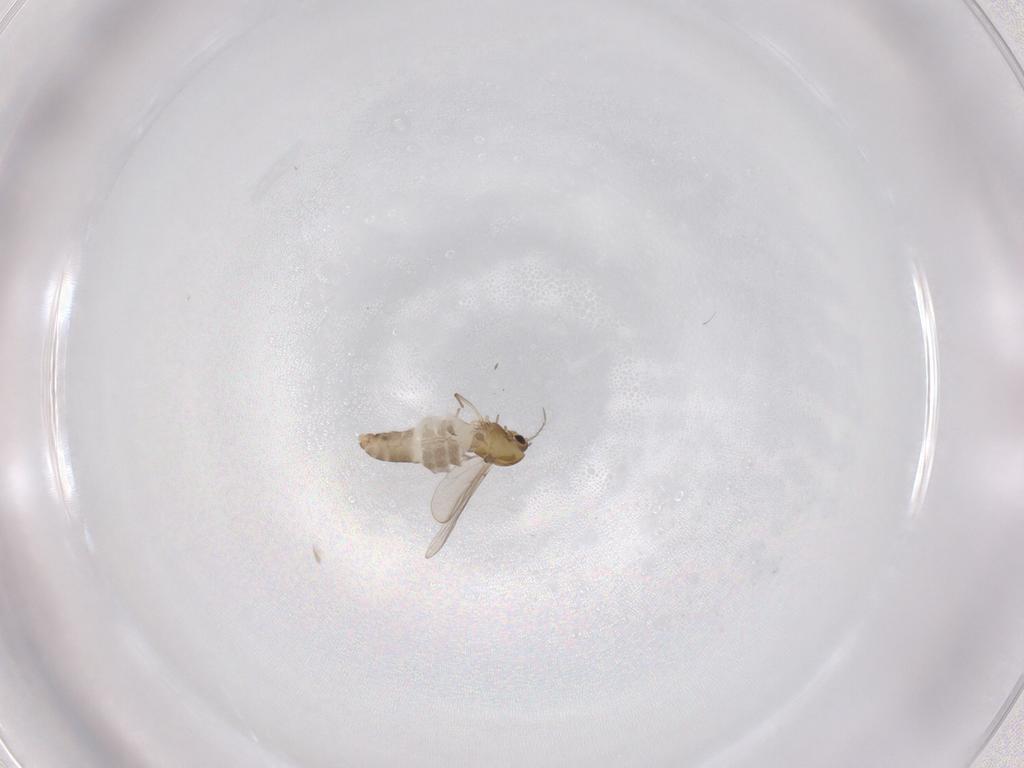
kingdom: Animalia
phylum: Arthropoda
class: Insecta
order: Diptera
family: Chironomidae
